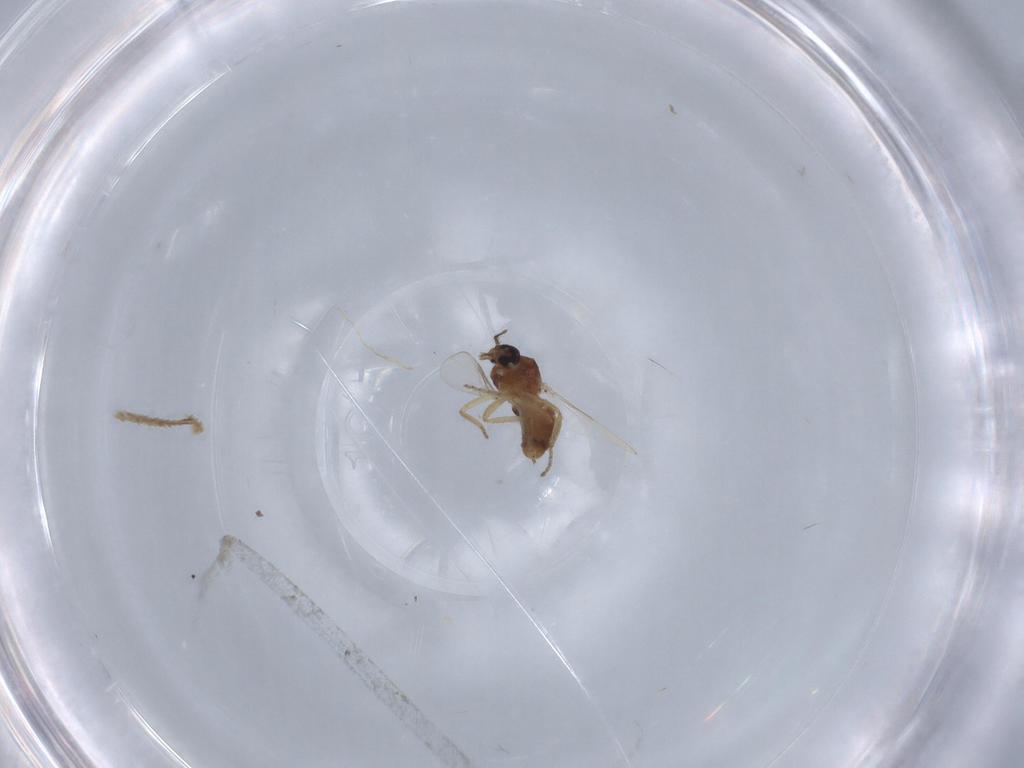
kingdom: Animalia
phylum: Arthropoda
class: Insecta
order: Diptera
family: Ceratopogonidae
